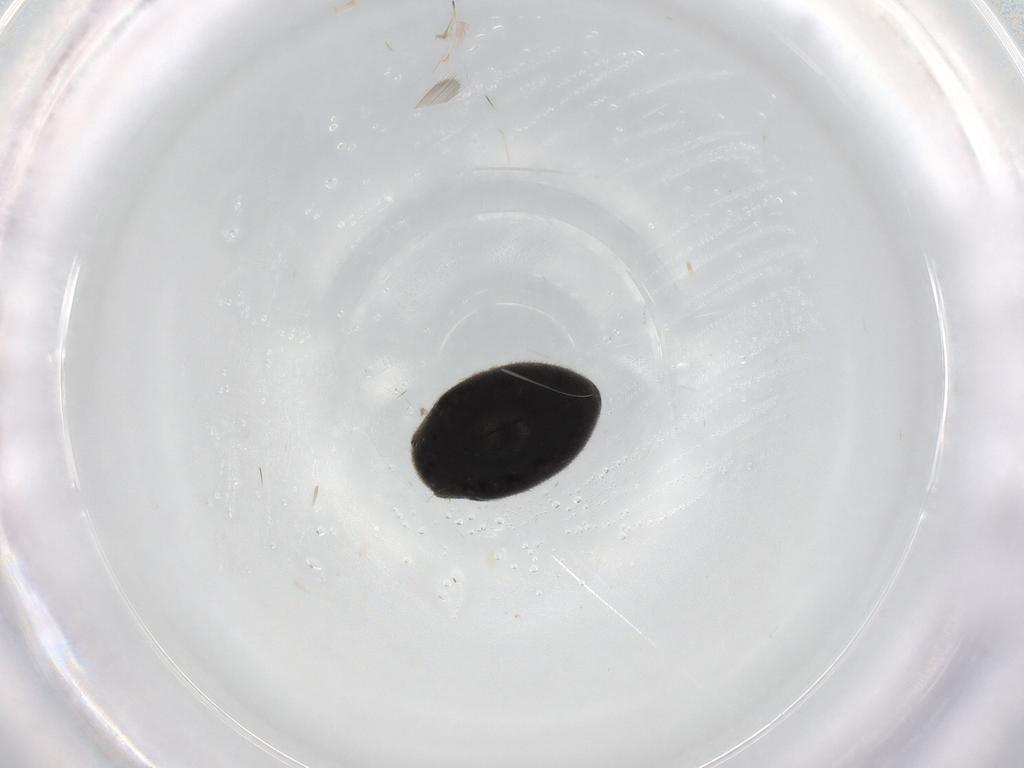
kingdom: Animalia
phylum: Arthropoda
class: Insecta
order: Coleoptera
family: Limnichidae
